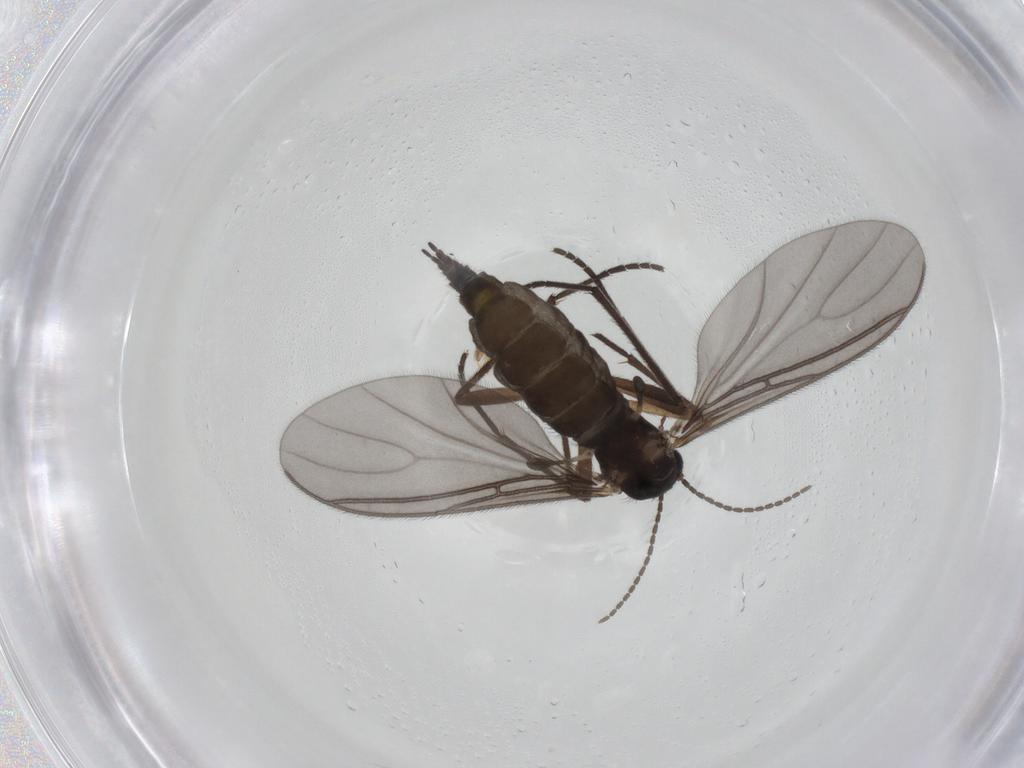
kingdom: Animalia
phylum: Arthropoda
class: Insecta
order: Diptera
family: Sciaridae
